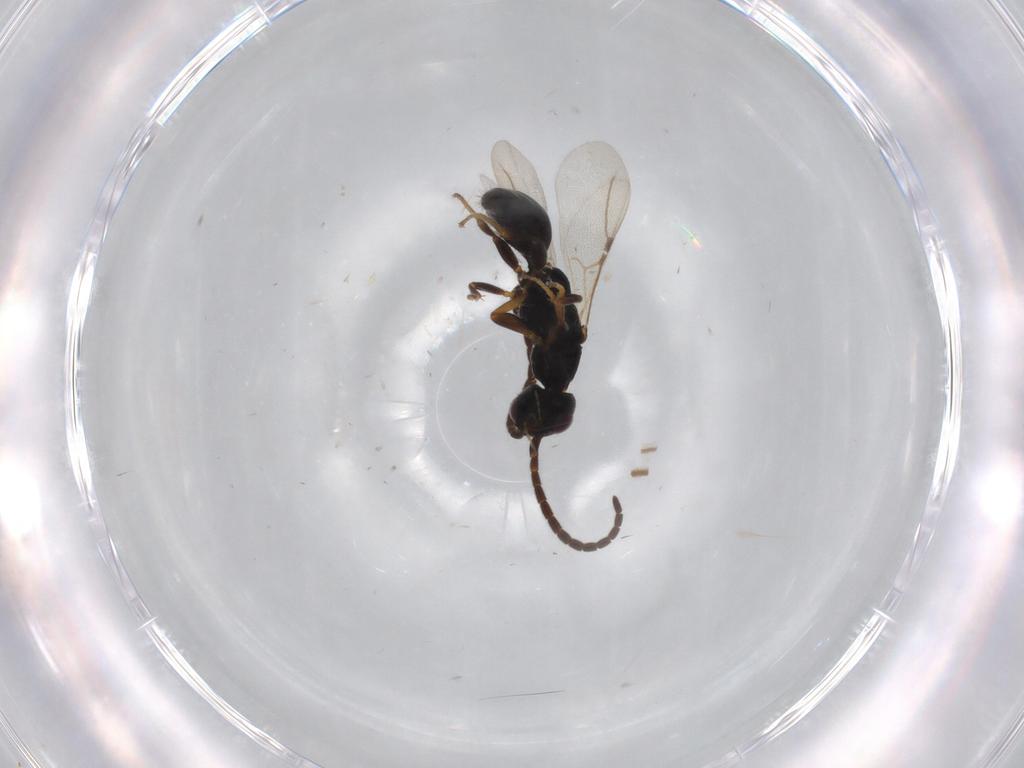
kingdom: Animalia
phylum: Arthropoda
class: Insecta
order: Hymenoptera
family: Bethylidae
